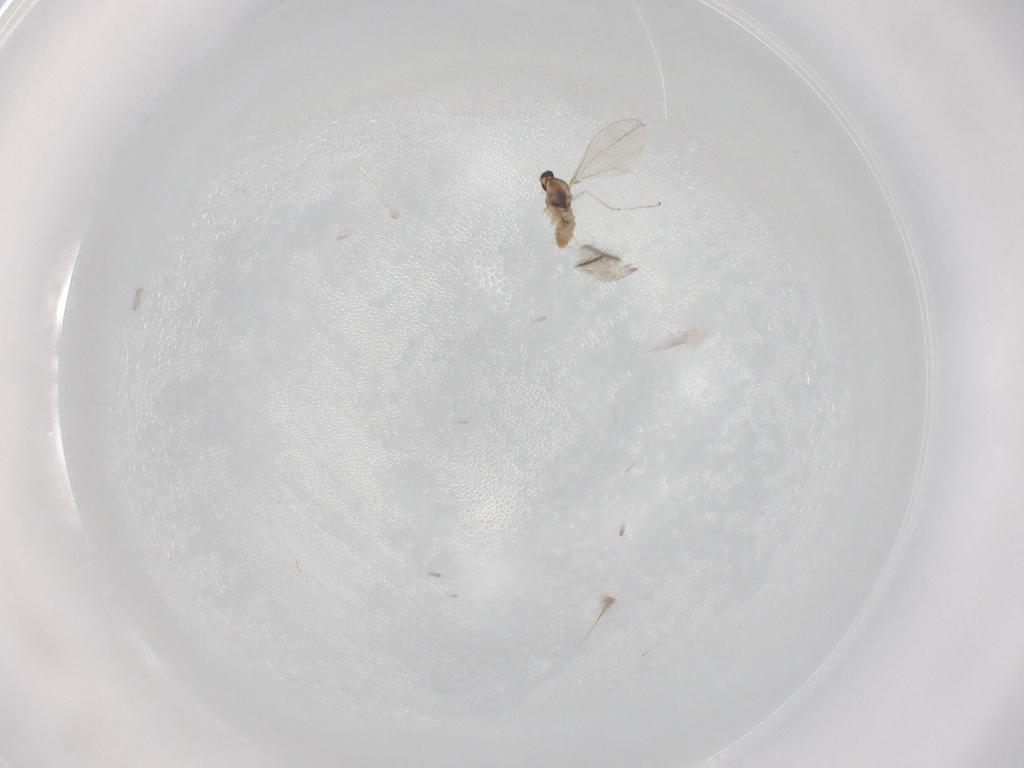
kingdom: Animalia
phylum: Arthropoda
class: Insecta
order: Diptera
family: Cecidomyiidae
